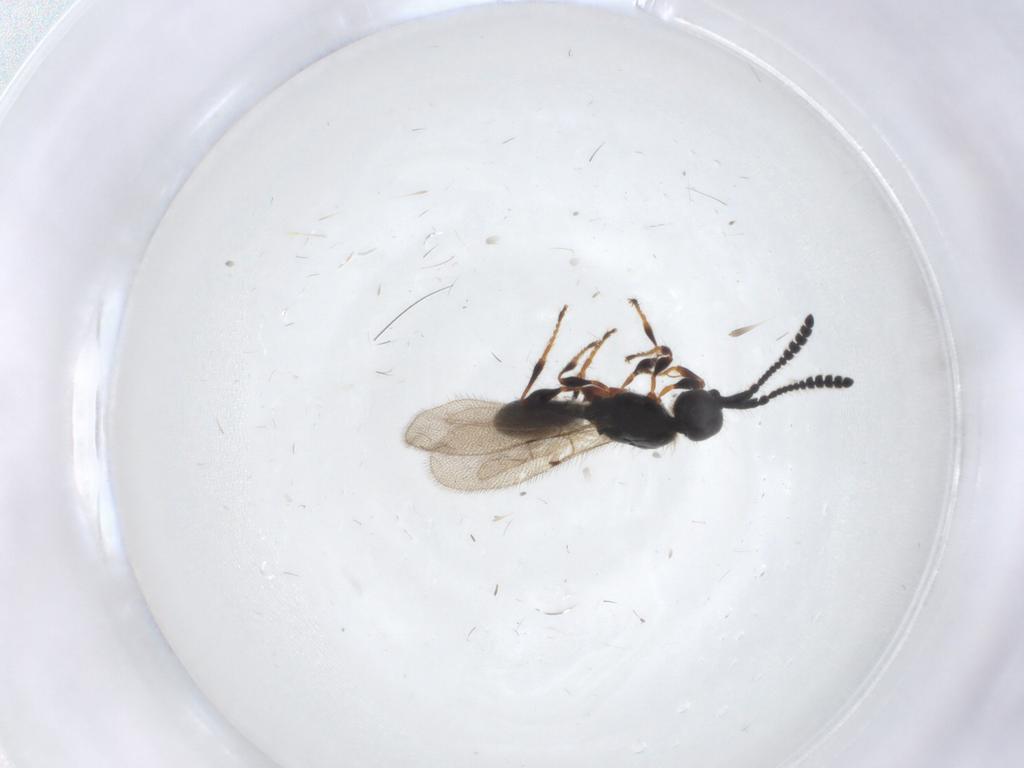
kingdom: Animalia
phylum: Arthropoda
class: Insecta
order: Hymenoptera
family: Diapriidae
